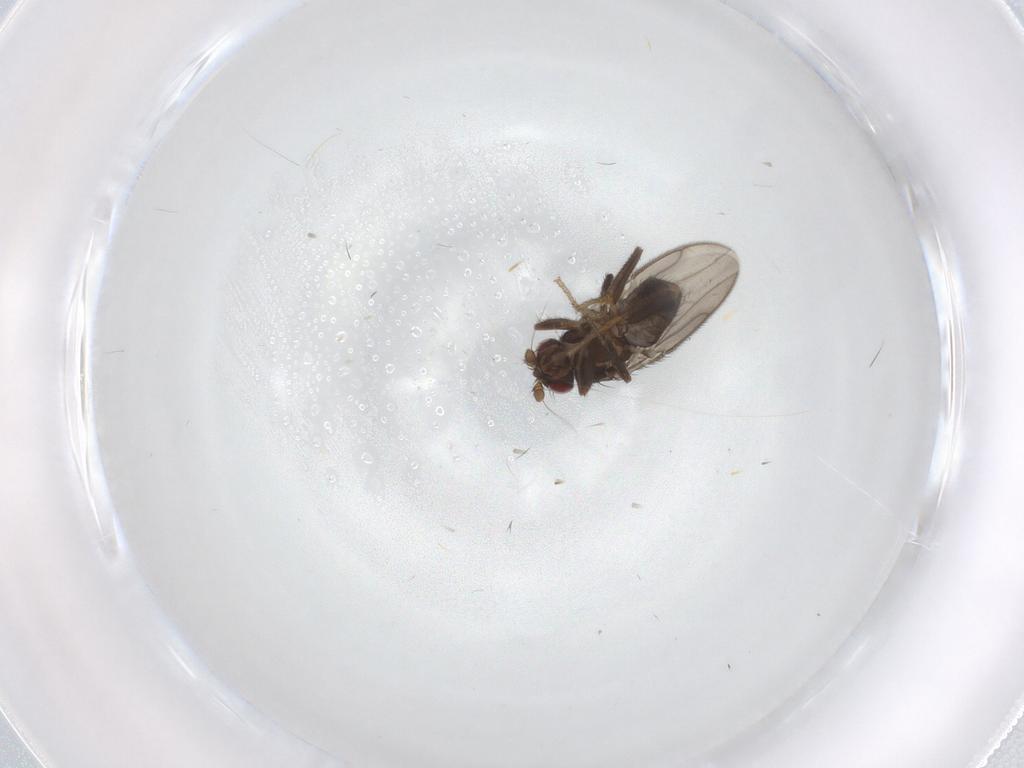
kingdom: Animalia
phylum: Arthropoda
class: Insecta
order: Diptera
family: Sphaeroceridae
